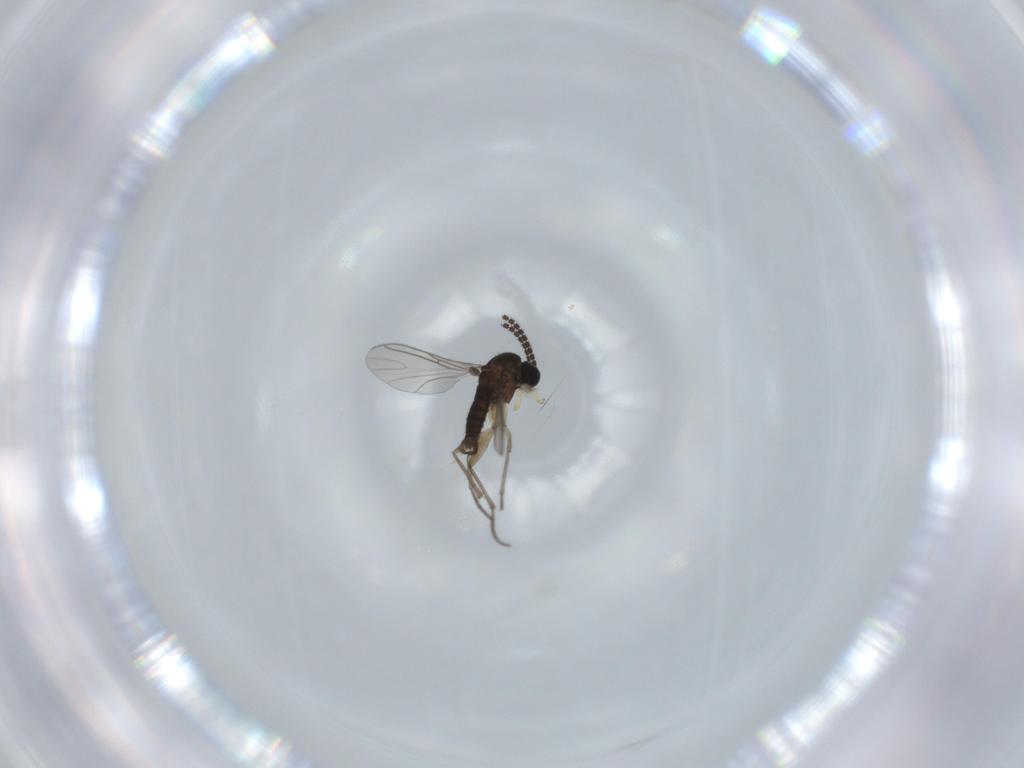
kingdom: Animalia
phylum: Arthropoda
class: Insecta
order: Diptera
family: Sciaridae
